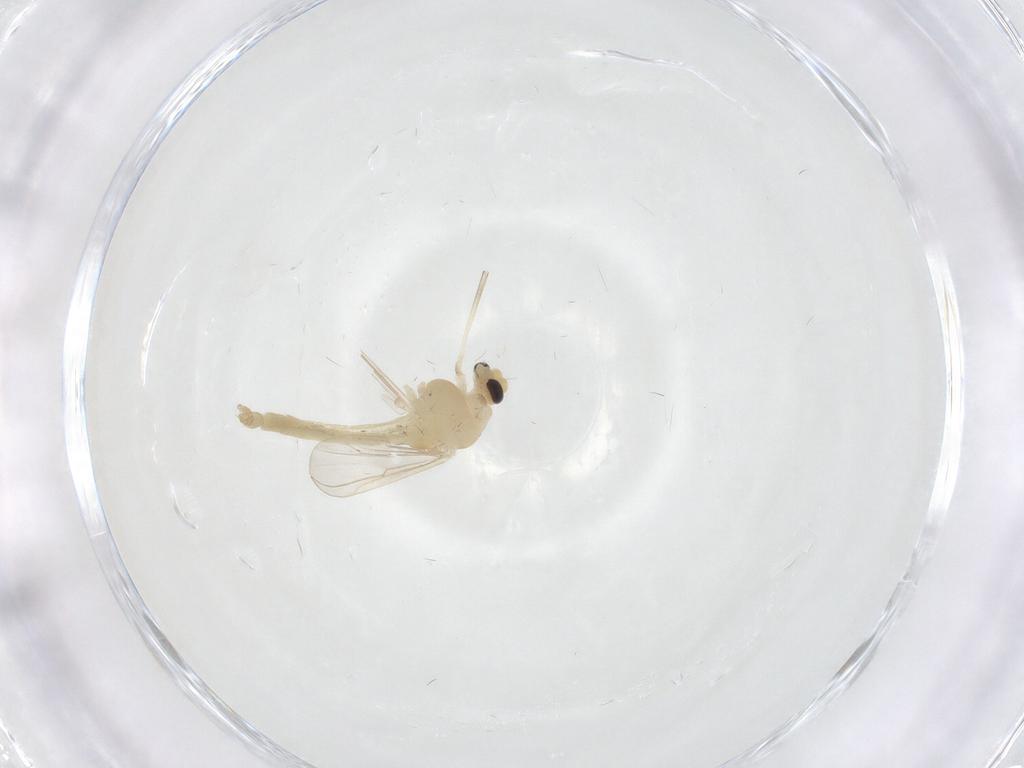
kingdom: Animalia
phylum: Arthropoda
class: Insecta
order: Diptera
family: Chironomidae
